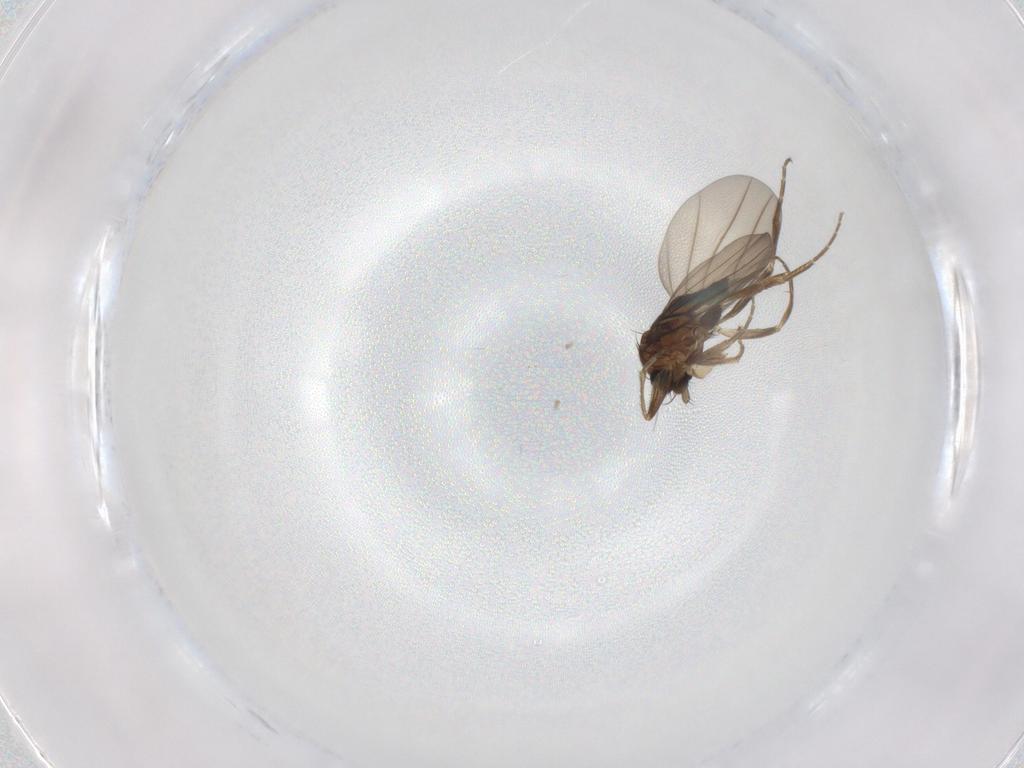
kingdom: Animalia
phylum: Arthropoda
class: Insecta
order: Diptera
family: Phoridae
